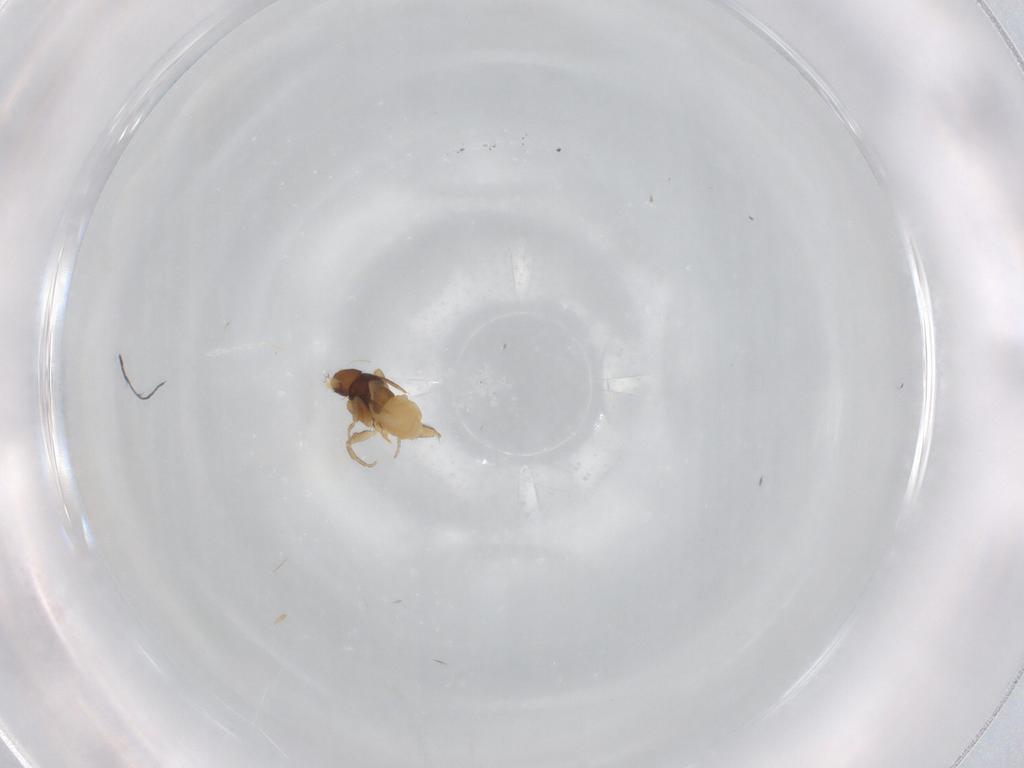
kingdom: Animalia
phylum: Arthropoda
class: Insecta
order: Diptera
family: Phoridae
